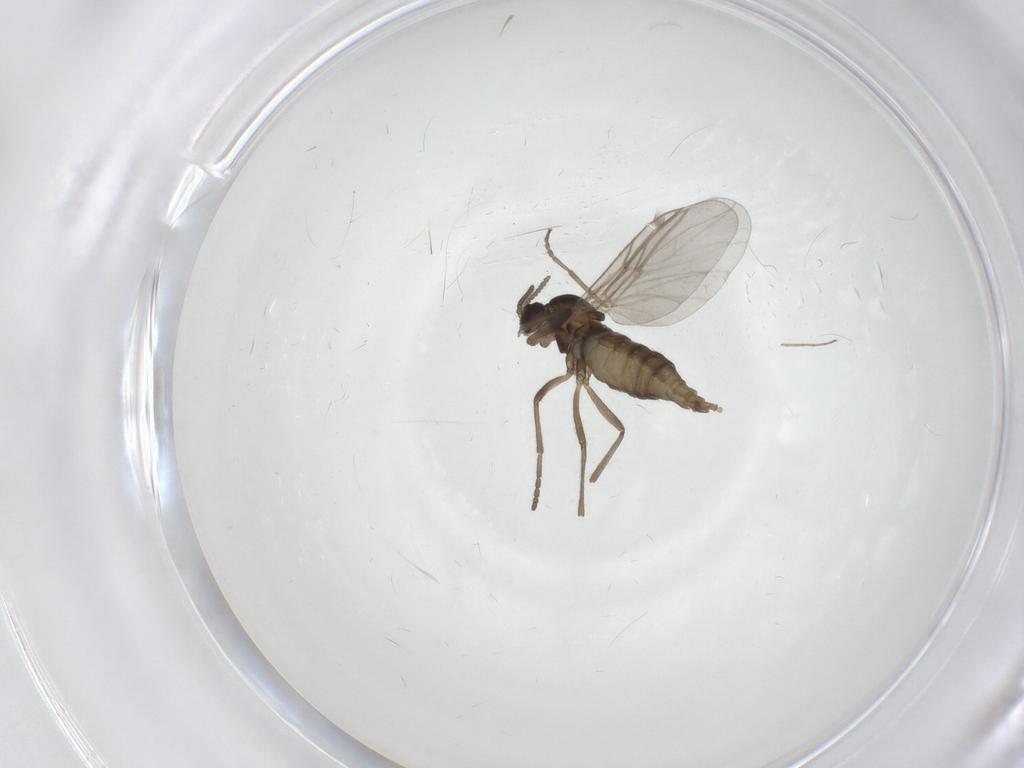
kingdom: Animalia
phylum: Arthropoda
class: Insecta
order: Diptera
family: Cecidomyiidae
